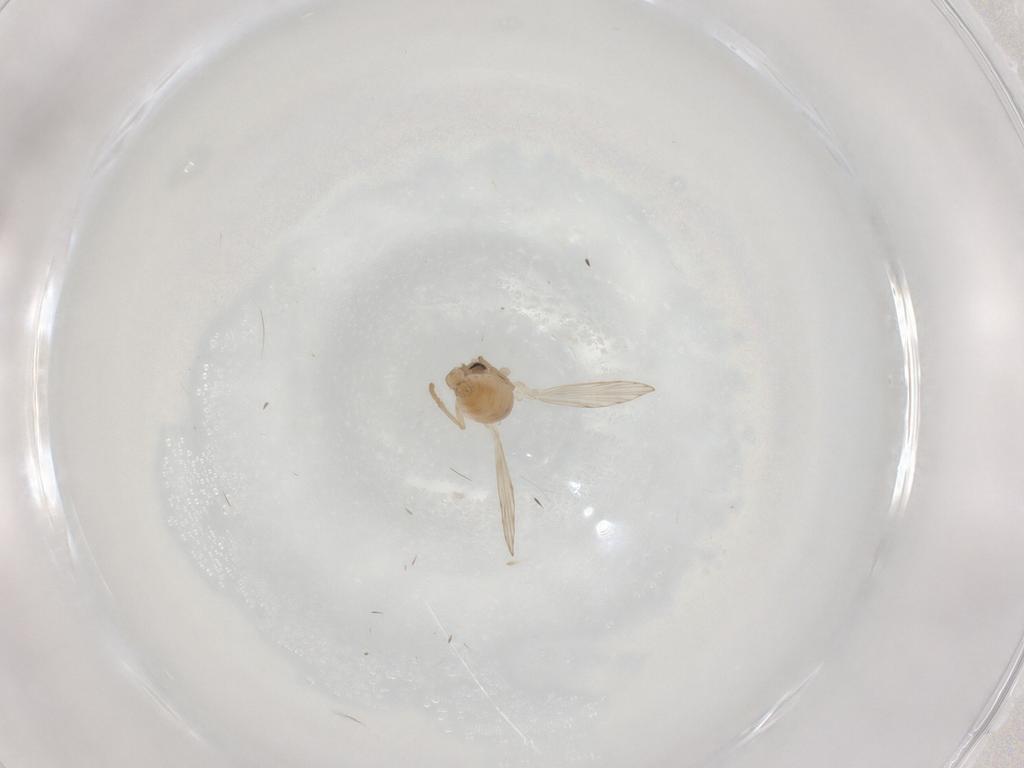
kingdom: Animalia
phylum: Arthropoda
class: Insecta
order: Diptera
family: Psychodidae
